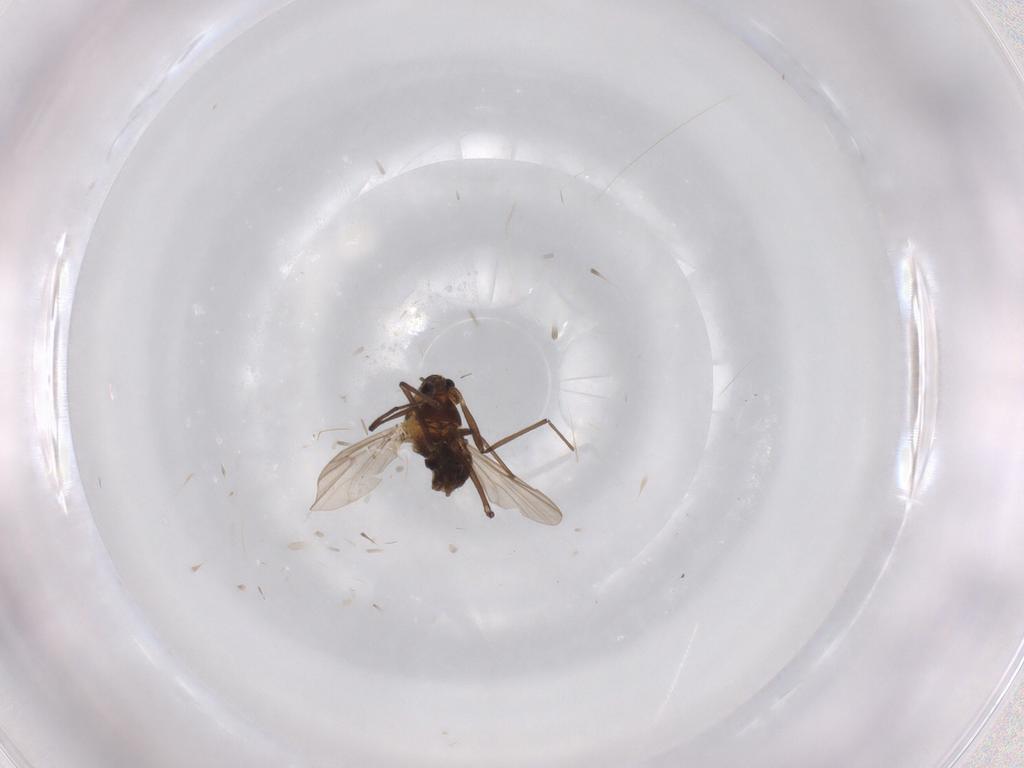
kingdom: Animalia
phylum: Arthropoda
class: Insecta
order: Diptera
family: Chironomidae
